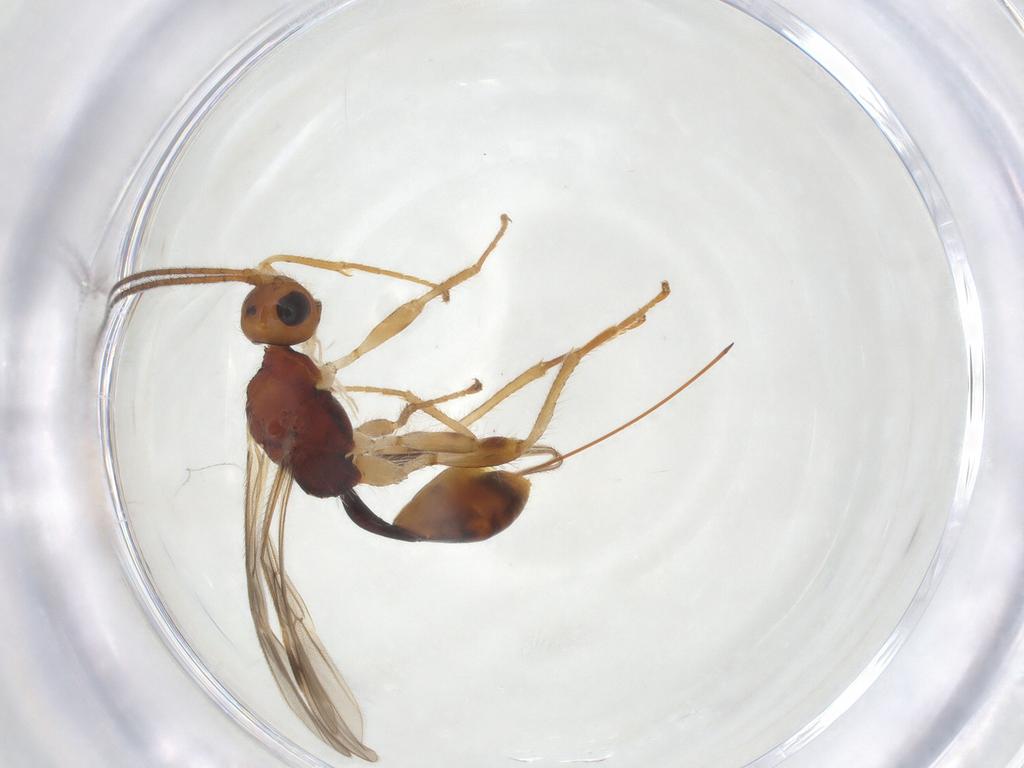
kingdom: Animalia
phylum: Arthropoda
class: Insecta
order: Hymenoptera
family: Braconidae
